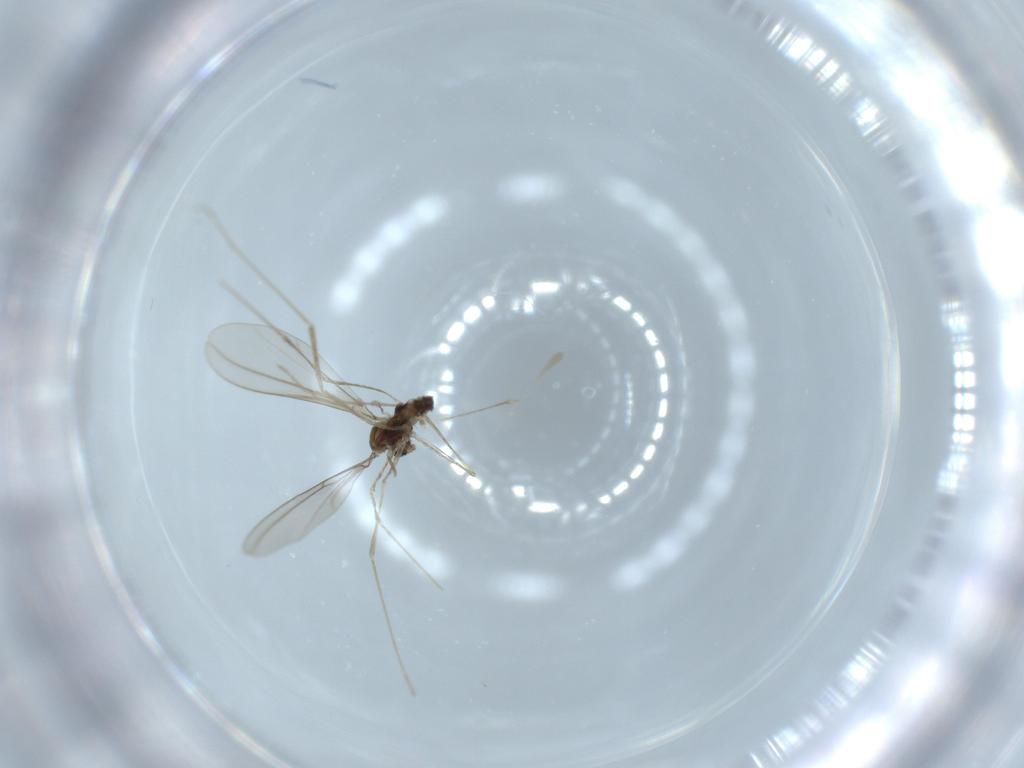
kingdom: Animalia
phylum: Arthropoda
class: Insecta
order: Diptera
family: Cecidomyiidae
